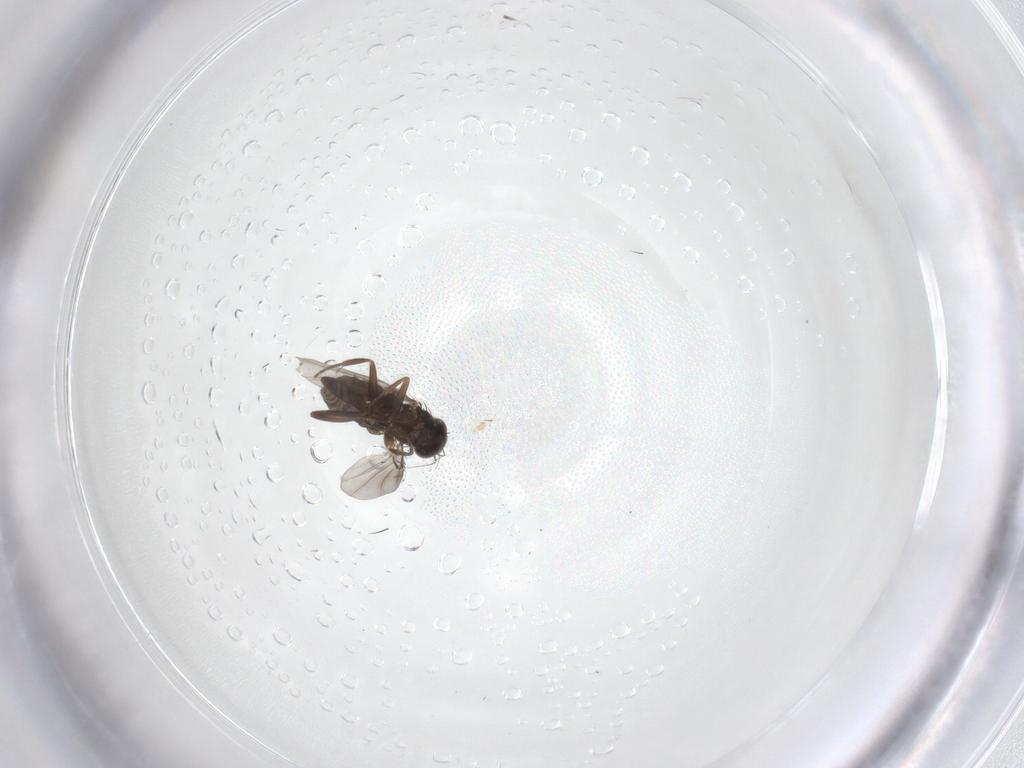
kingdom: Animalia
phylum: Arthropoda
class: Insecta
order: Diptera
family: Phoridae
